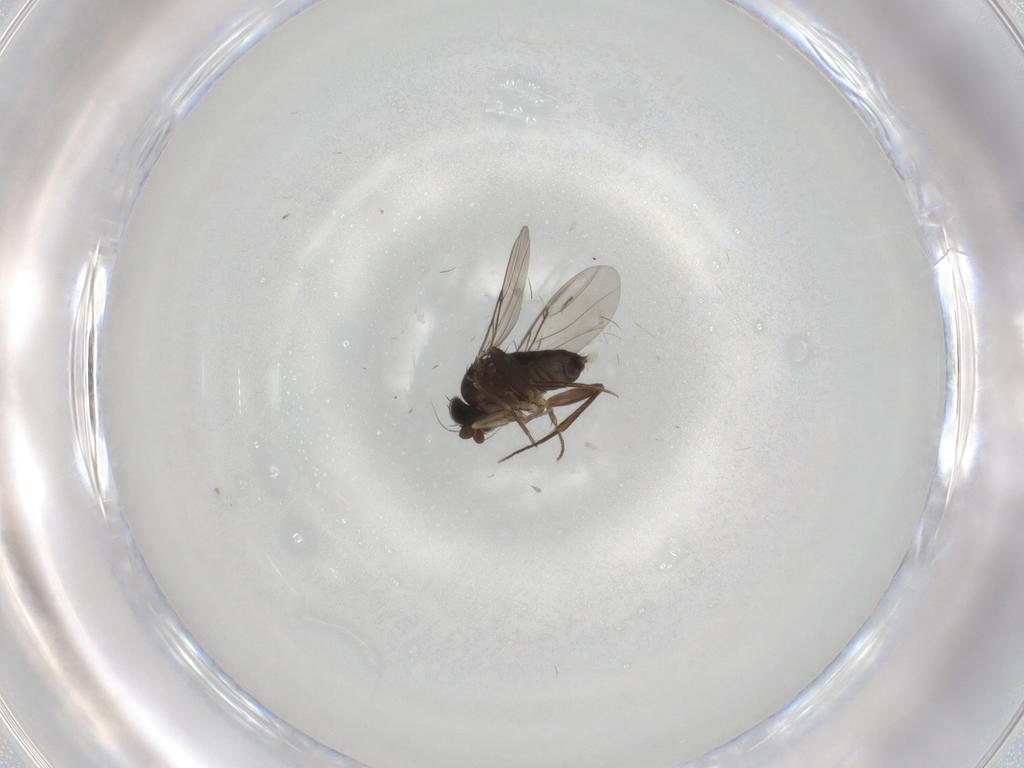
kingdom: Animalia
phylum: Arthropoda
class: Insecta
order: Diptera
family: Phoridae
